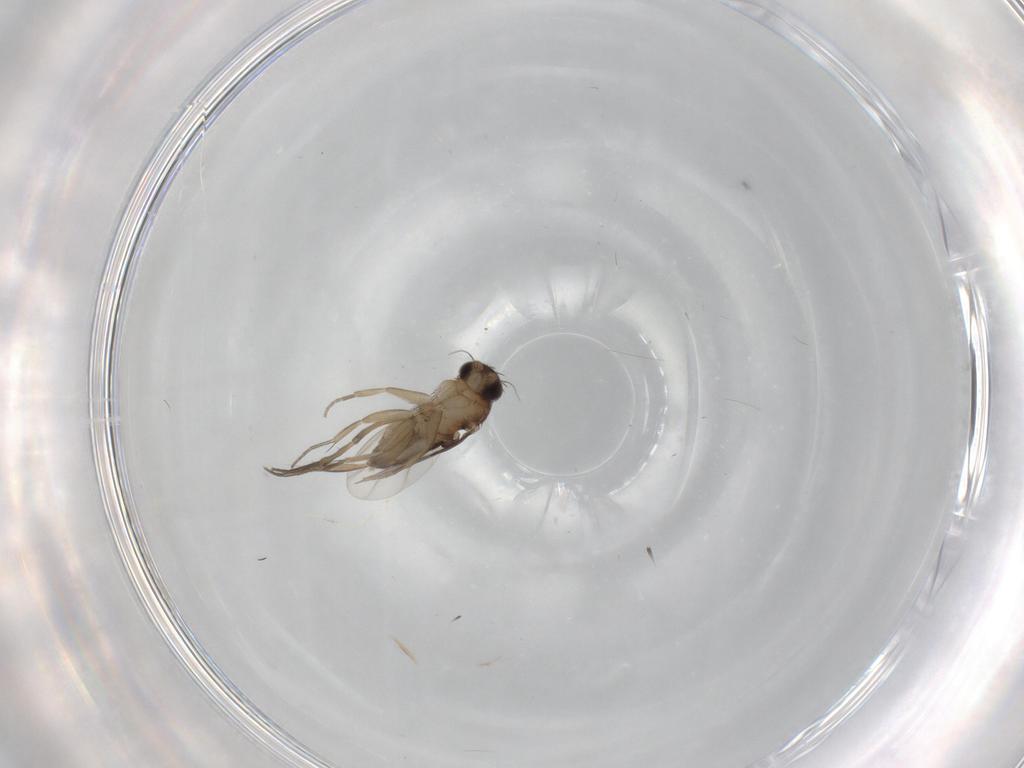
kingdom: Animalia
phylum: Arthropoda
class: Insecta
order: Diptera
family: Phoridae
